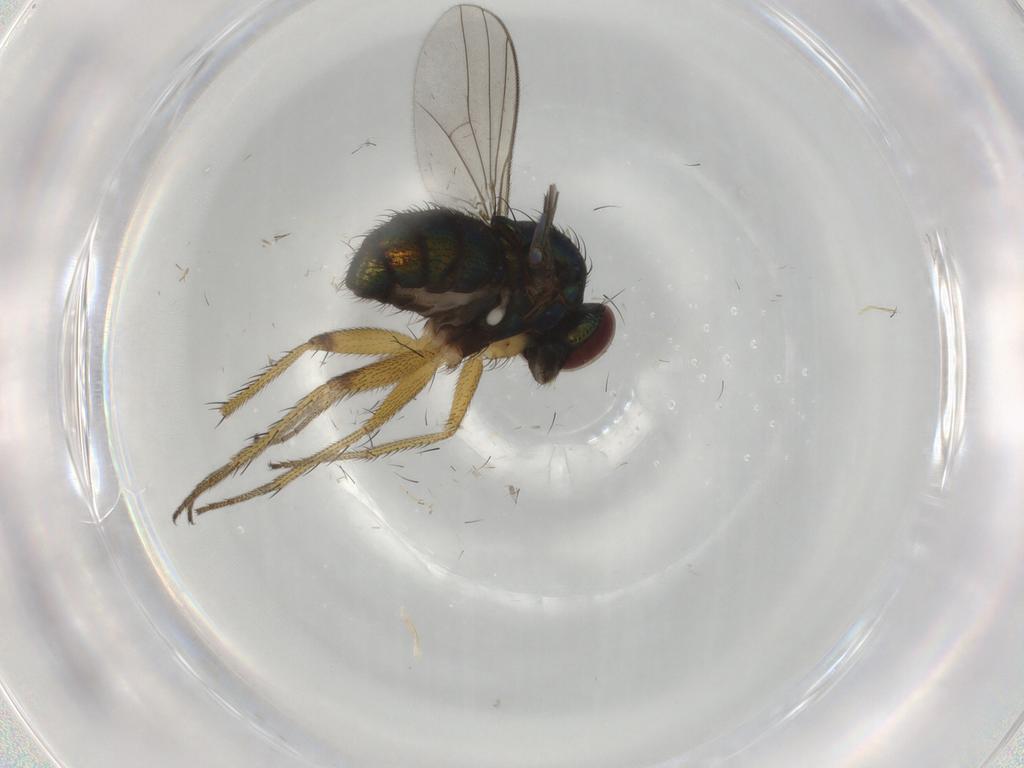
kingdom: Animalia
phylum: Arthropoda
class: Insecta
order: Diptera
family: Dolichopodidae
